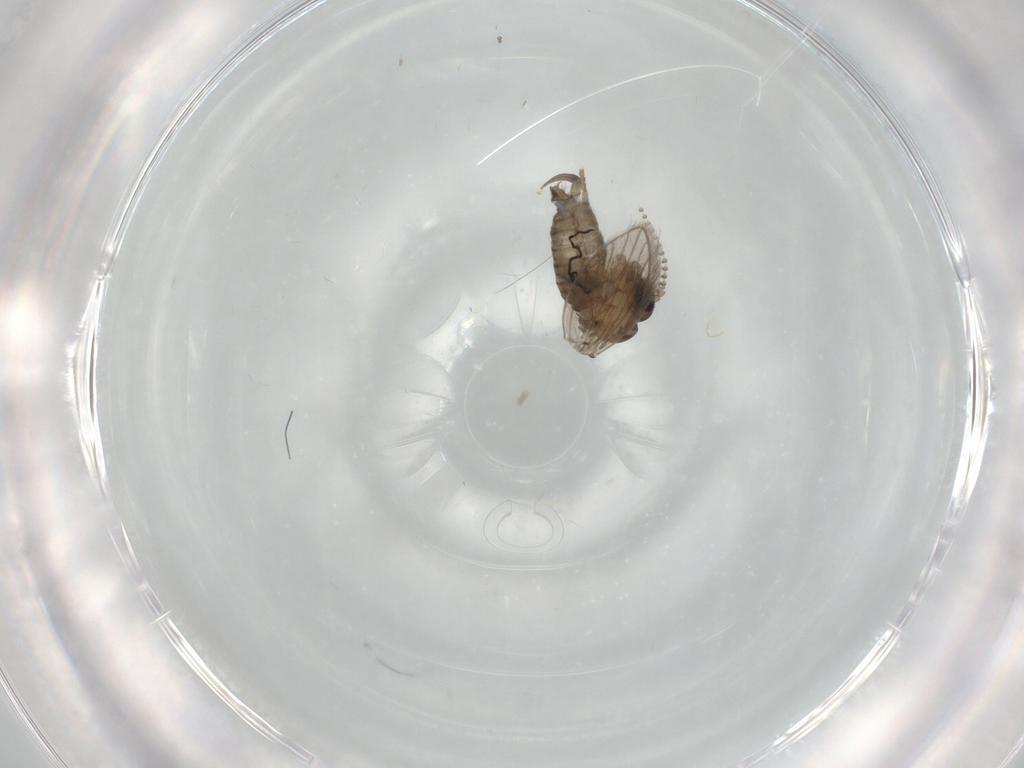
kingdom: Animalia
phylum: Arthropoda
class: Insecta
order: Diptera
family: Psychodidae
